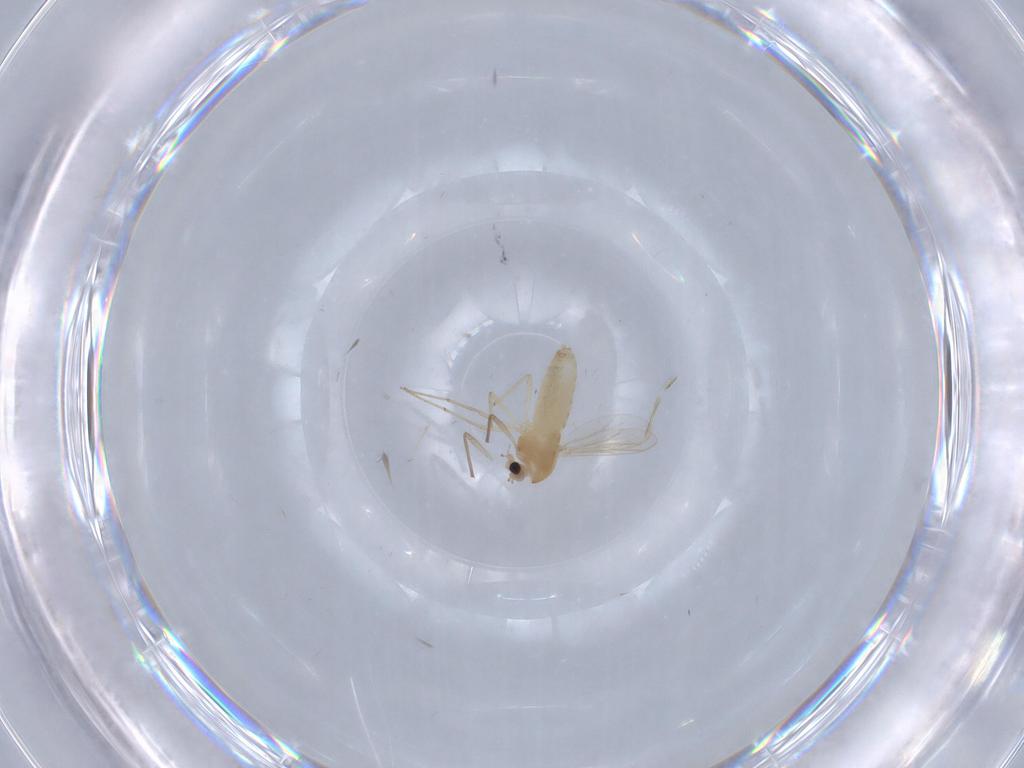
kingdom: Animalia
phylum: Arthropoda
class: Insecta
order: Diptera
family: Chironomidae
